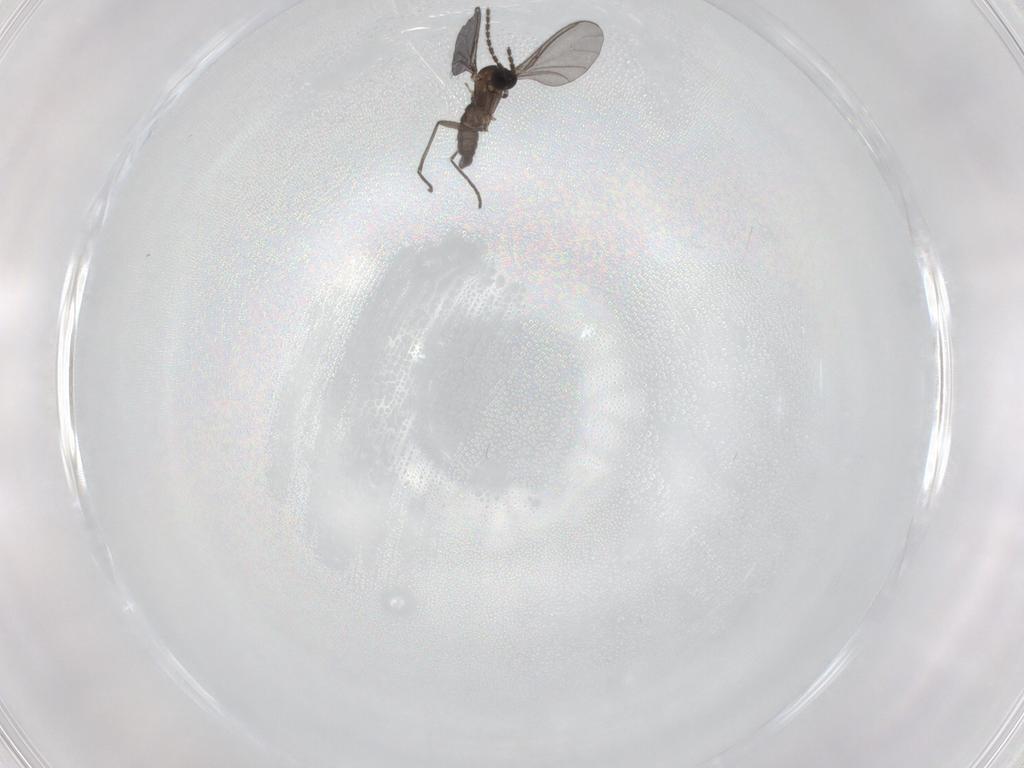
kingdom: Animalia
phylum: Arthropoda
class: Insecta
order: Diptera
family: Sciaridae
